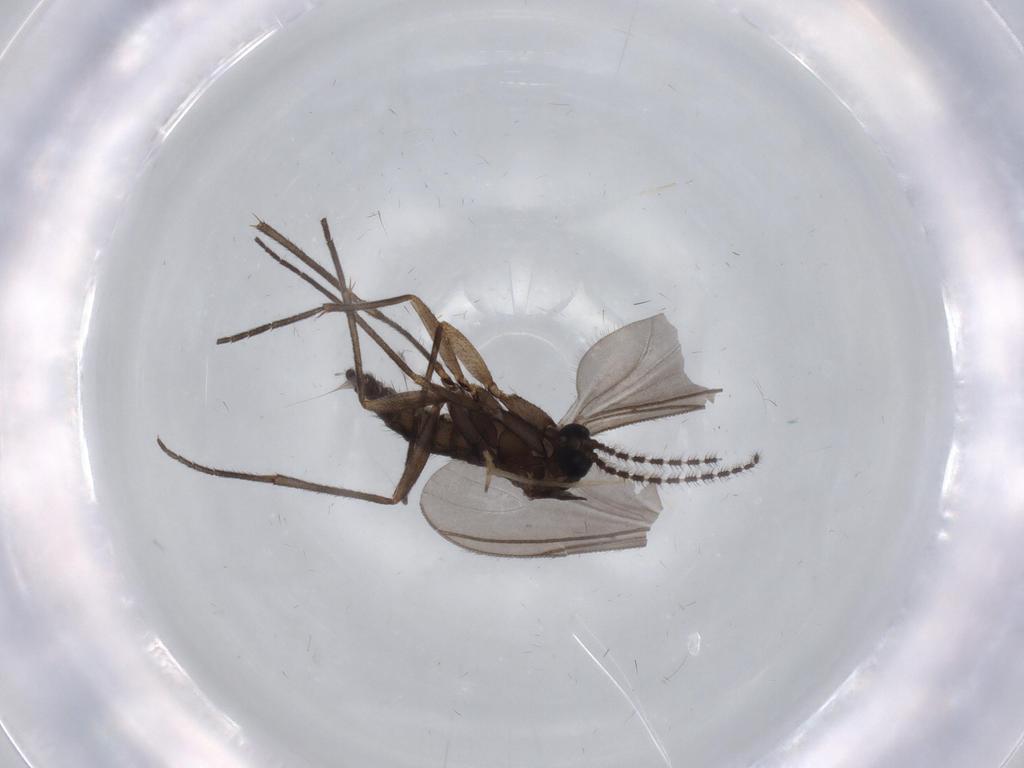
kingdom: Animalia
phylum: Arthropoda
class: Insecta
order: Diptera
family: Chironomidae
